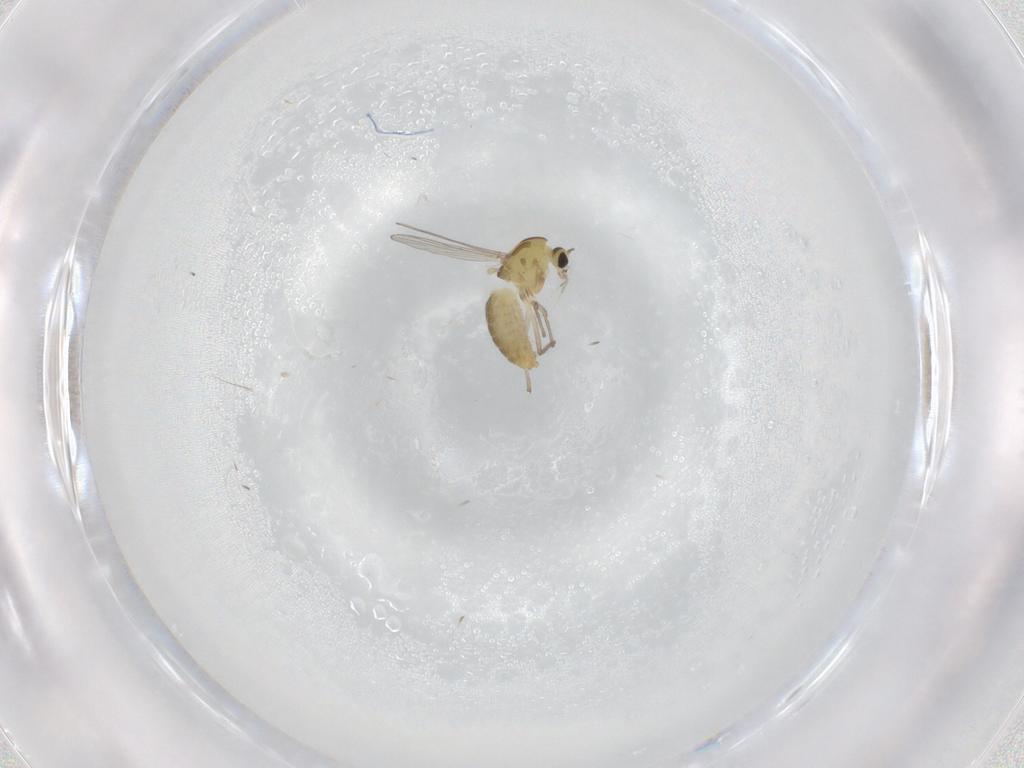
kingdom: Animalia
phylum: Arthropoda
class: Insecta
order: Diptera
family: Chironomidae
